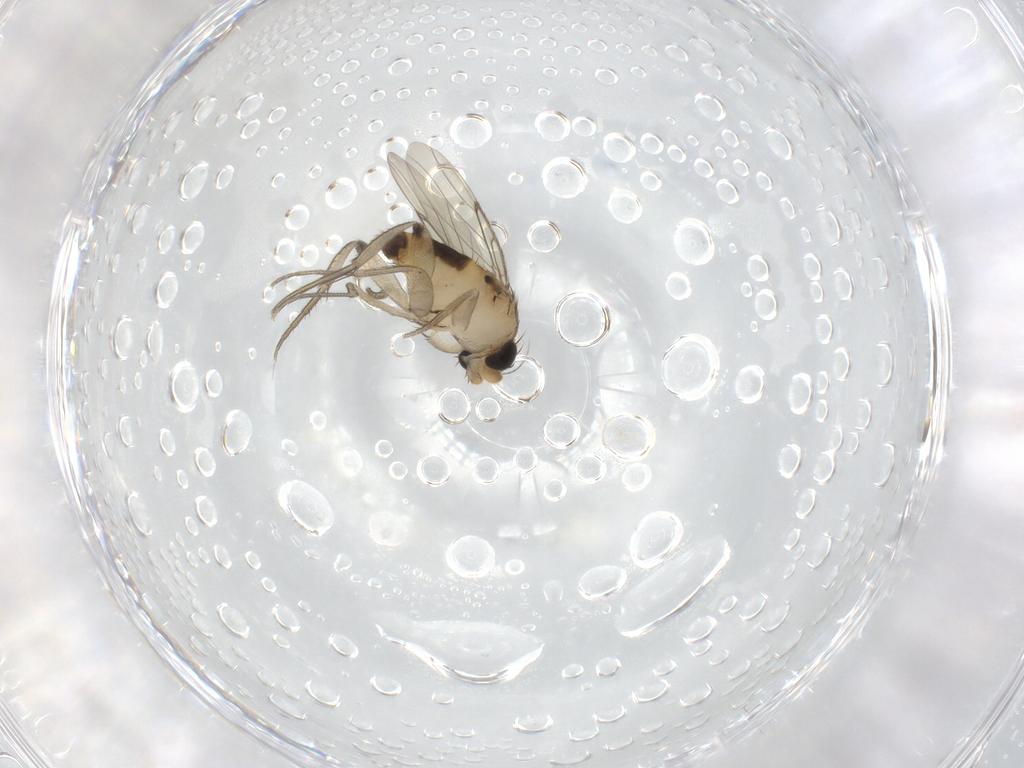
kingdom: Animalia
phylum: Arthropoda
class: Insecta
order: Diptera
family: Phoridae
